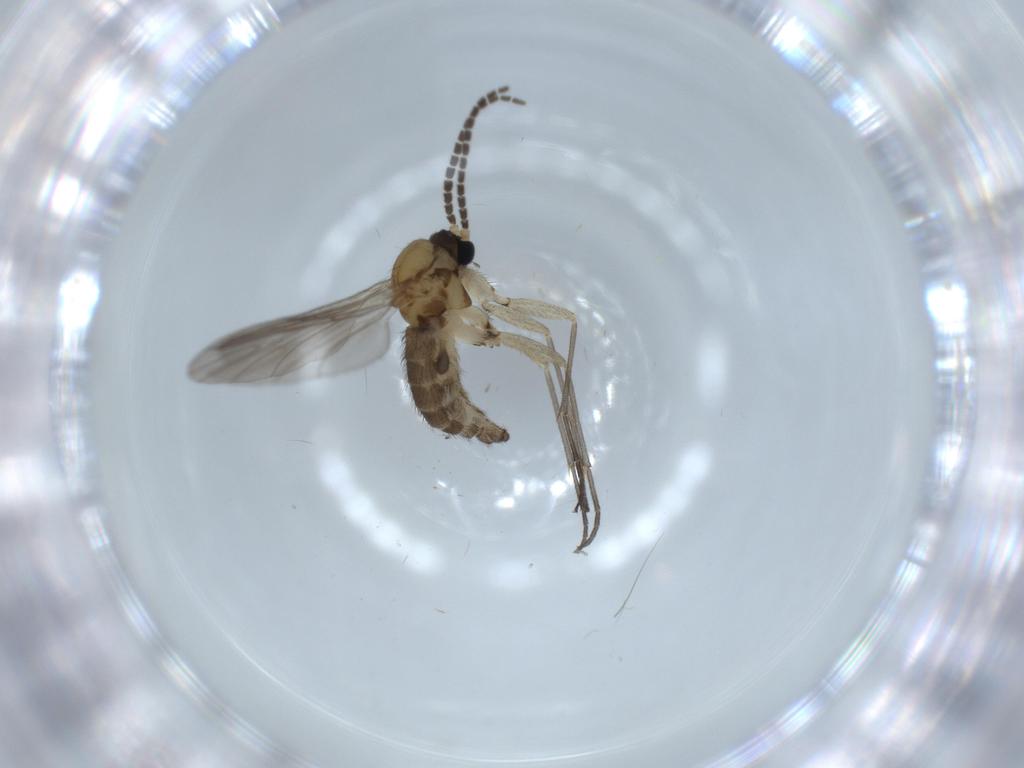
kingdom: Animalia
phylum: Arthropoda
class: Insecta
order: Diptera
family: Sciaridae
